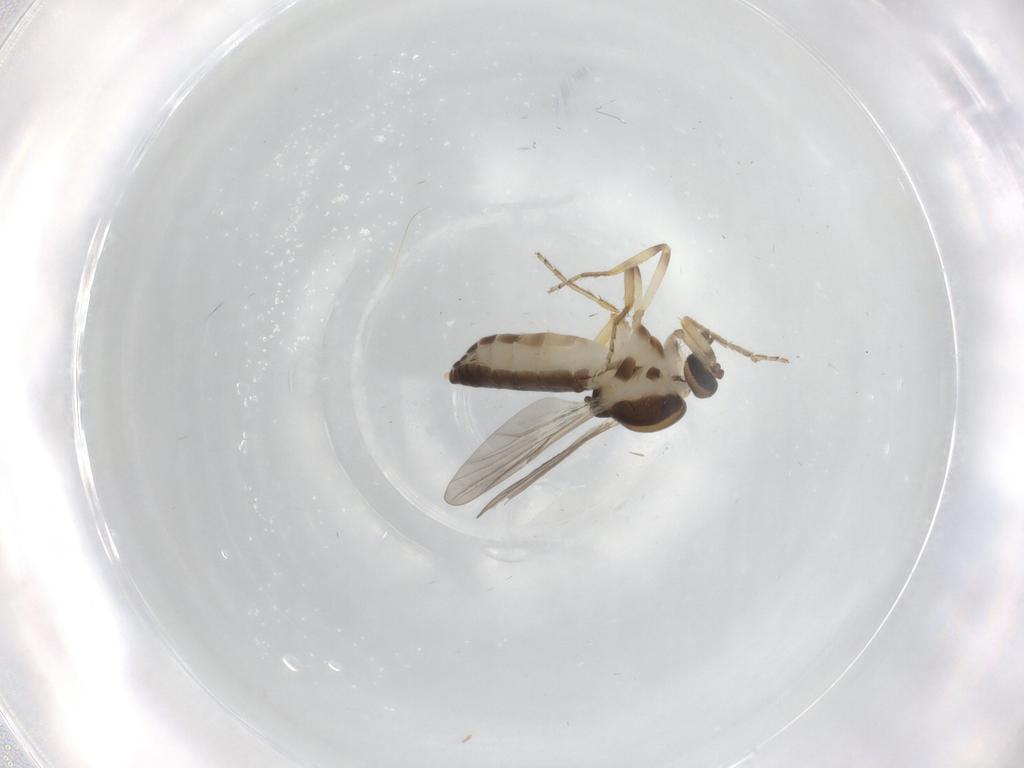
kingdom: Animalia
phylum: Arthropoda
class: Insecta
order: Diptera
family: Ceratopogonidae
